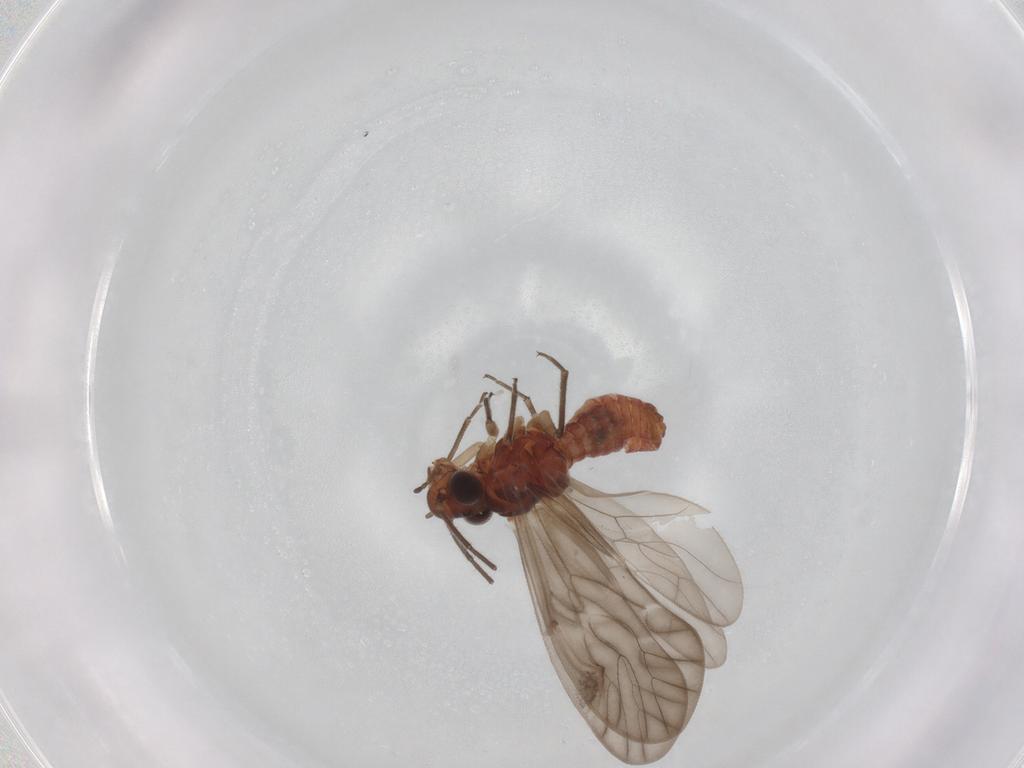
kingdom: Animalia
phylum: Arthropoda
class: Insecta
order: Psocodea
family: Caeciliusidae
